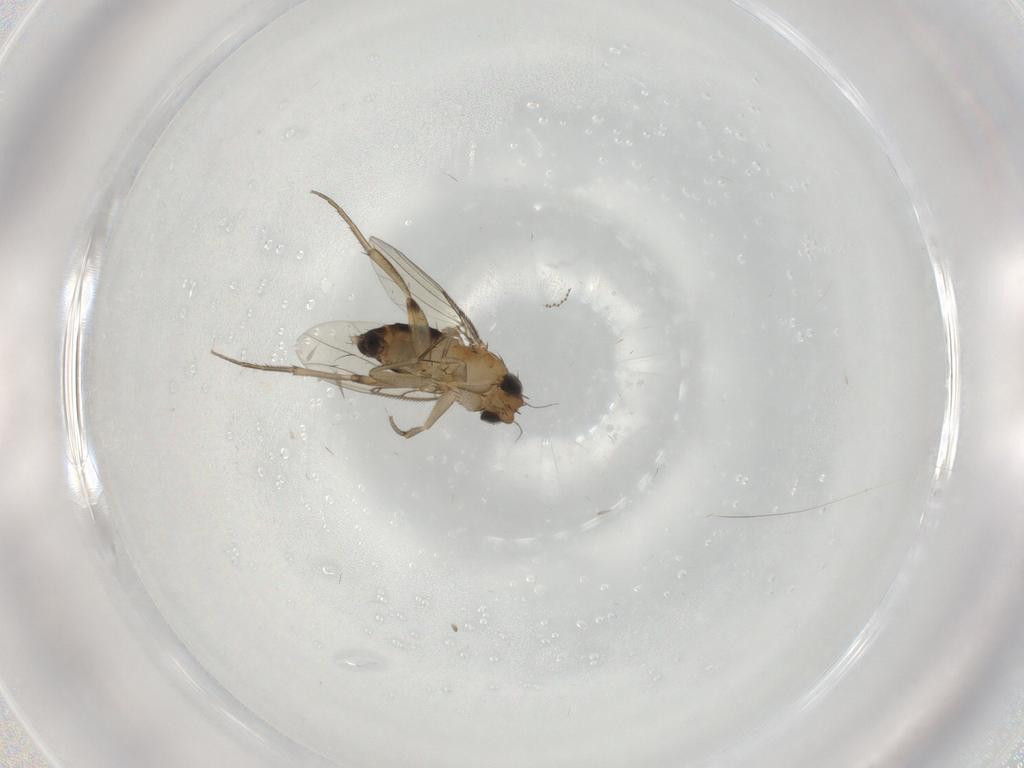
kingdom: Animalia
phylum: Arthropoda
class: Insecta
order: Diptera
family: Phoridae
